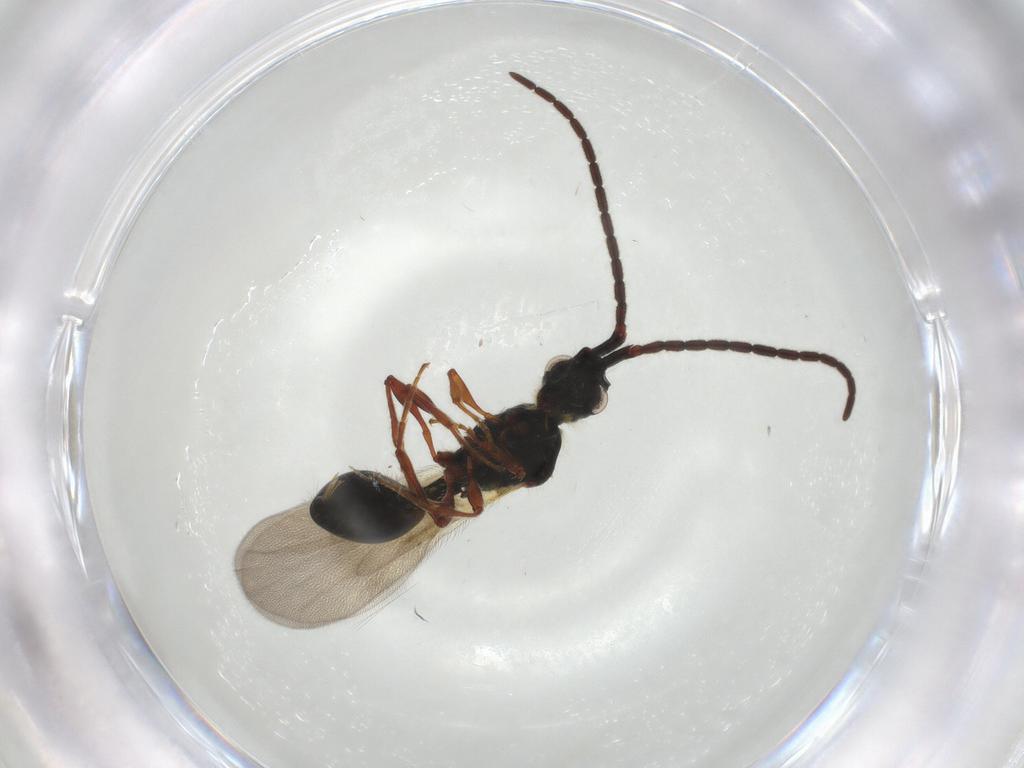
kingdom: Animalia
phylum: Arthropoda
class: Insecta
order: Hymenoptera
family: Diapriidae
